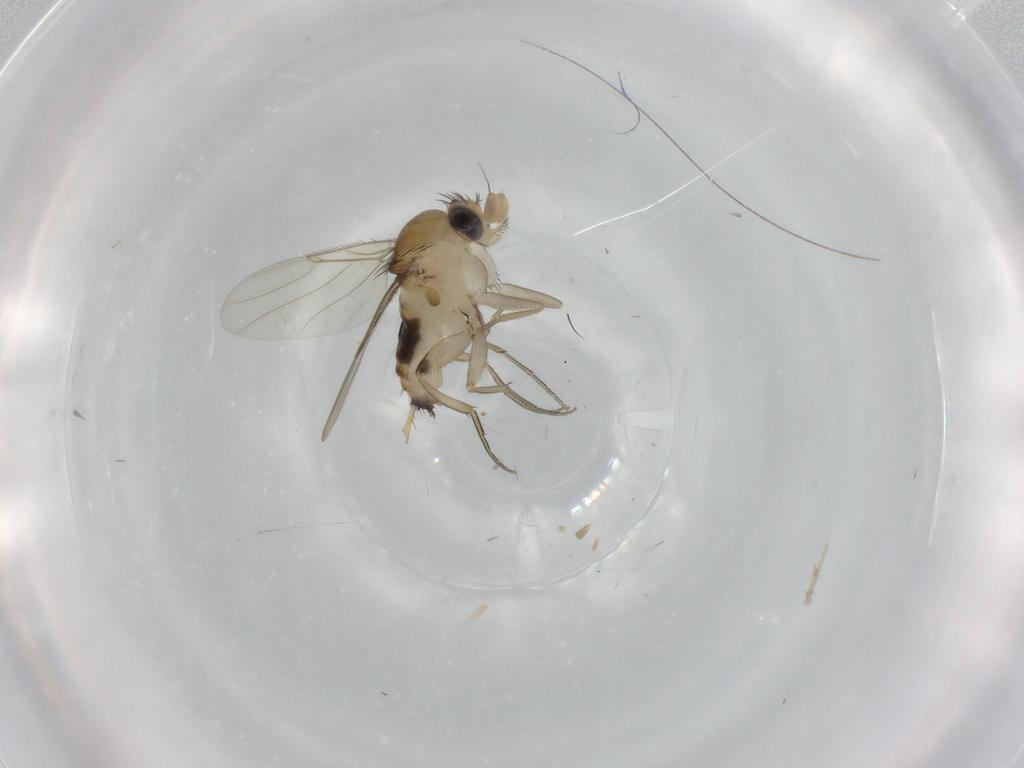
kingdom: Animalia
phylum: Arthropoda
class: Insecta
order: Diptera
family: Phoridae
